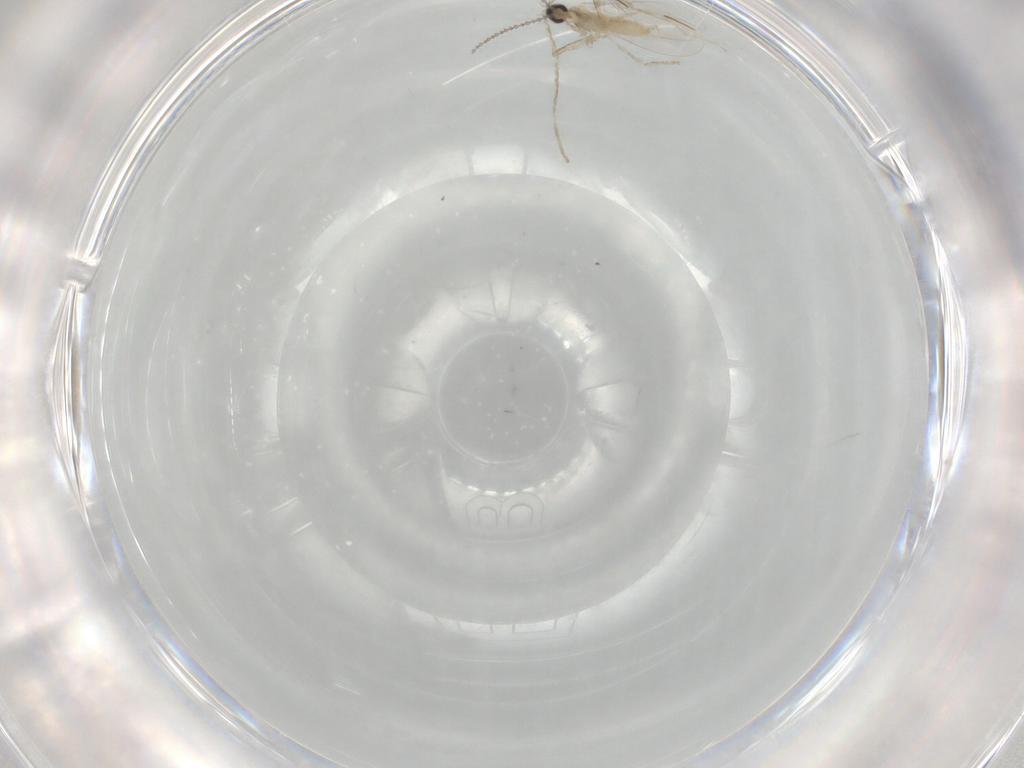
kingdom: Animalia
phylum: Arthropoda
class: Insecta
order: Diptera
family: Cecidomyiidae
